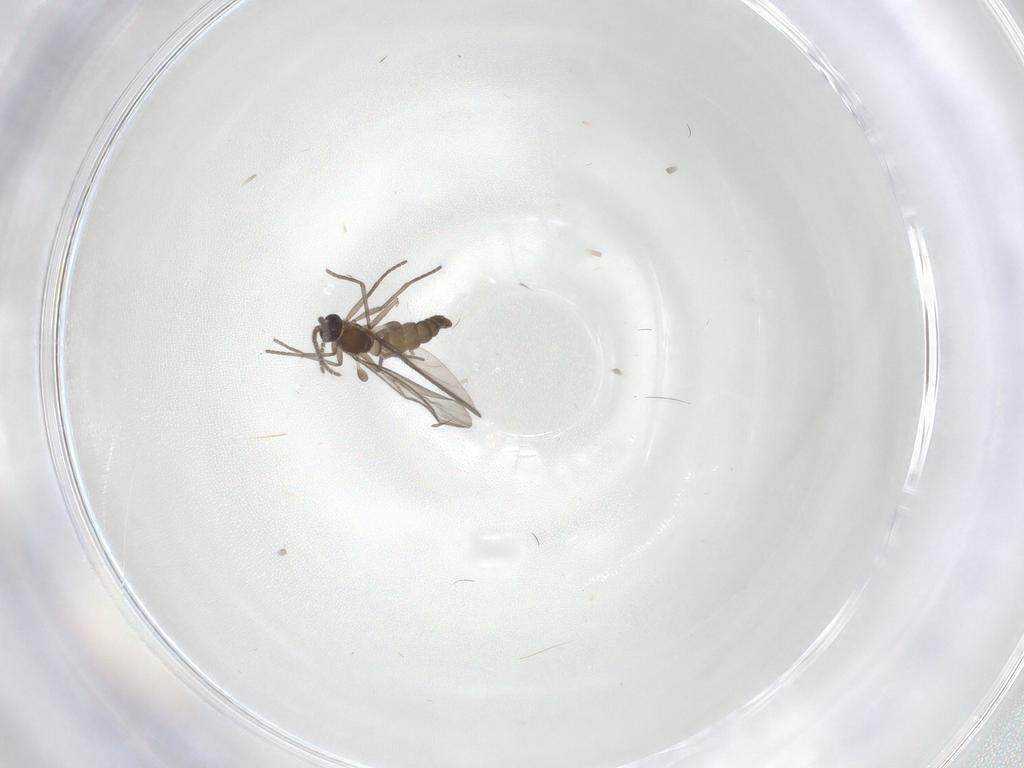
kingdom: Animalia
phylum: Arthropoda
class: Insecta
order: Diptera
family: Sciaridae
